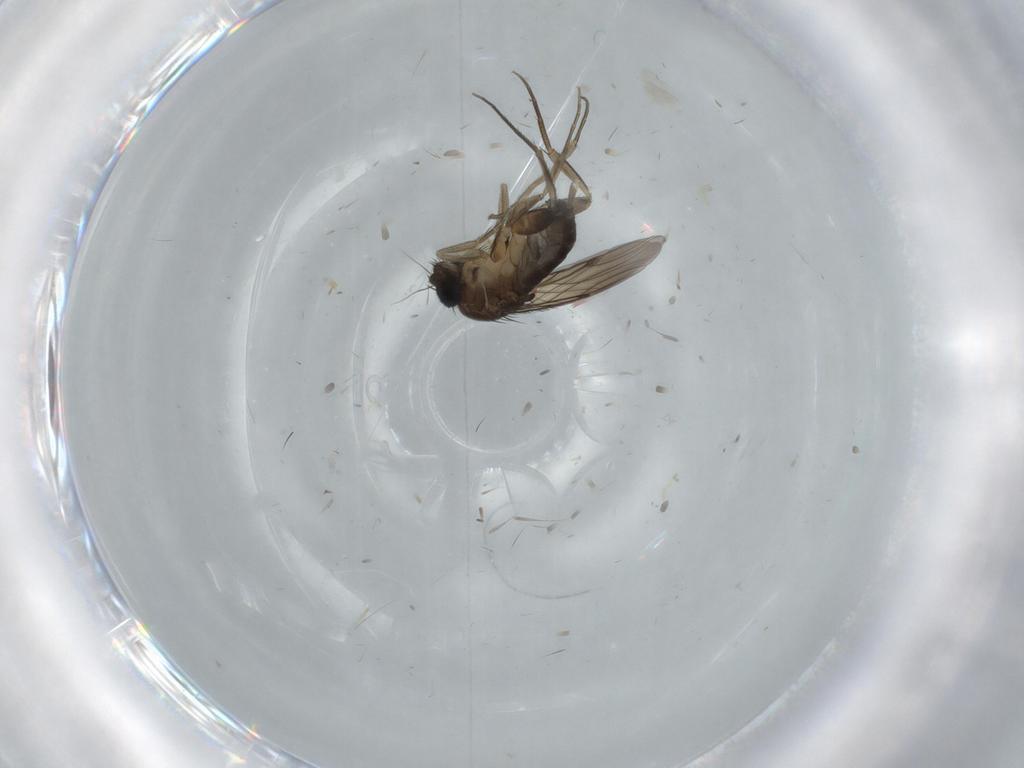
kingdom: Animalia
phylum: Arthropoda
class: Insecta
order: Diptera
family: Phoridae
